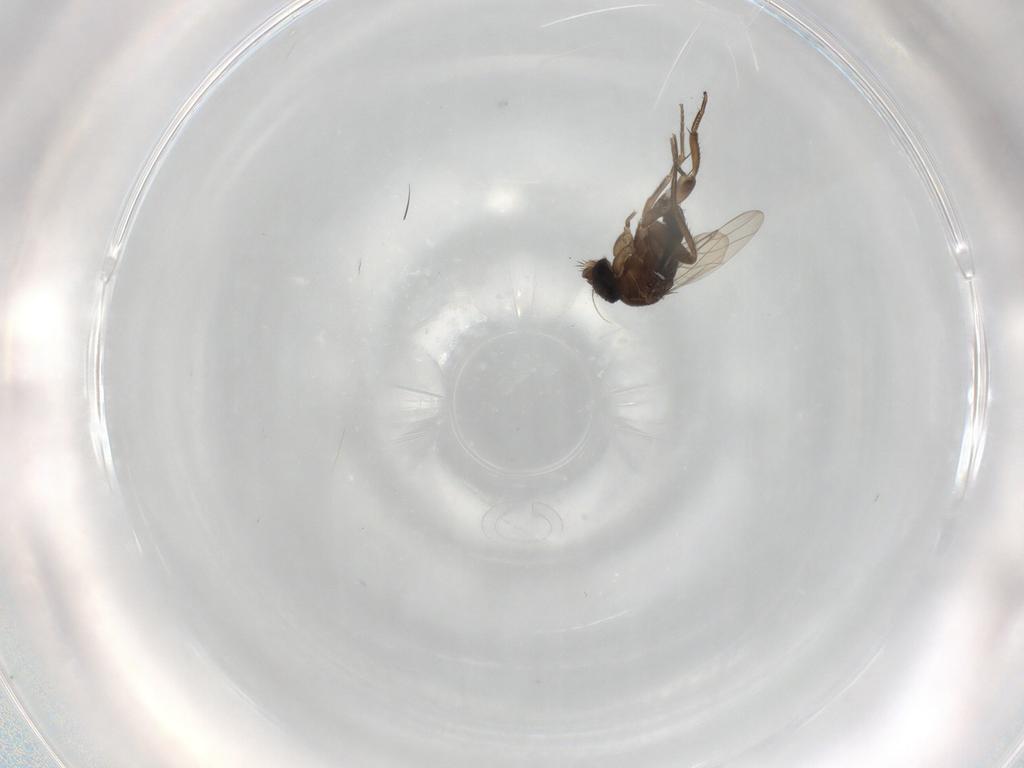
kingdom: Animalia
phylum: Arthropoda
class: Insecta
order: Diptera
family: Phoridae
